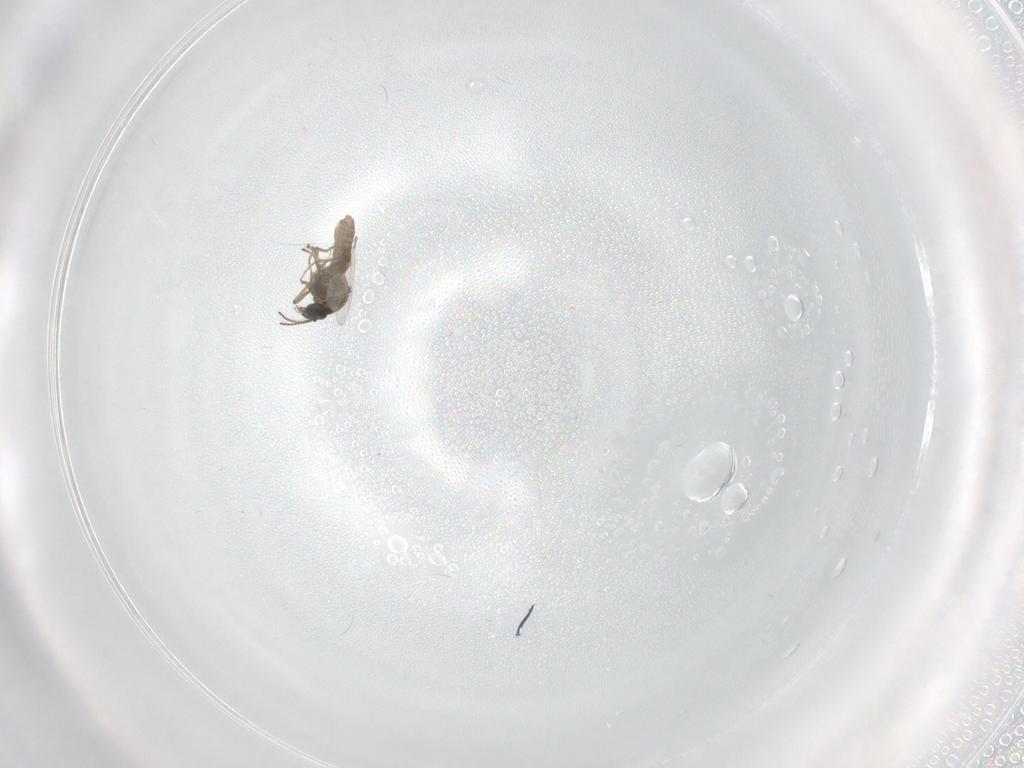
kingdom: Animalia
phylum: Arthropoda
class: Insecta
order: Diptera
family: Ceratopogonidae
